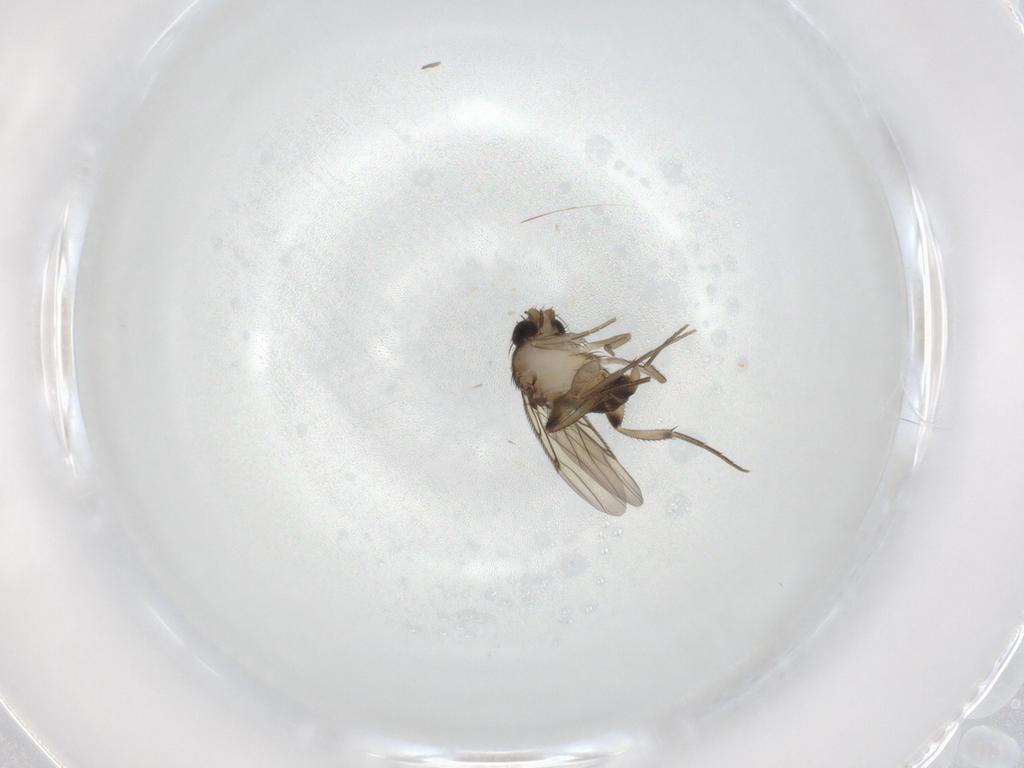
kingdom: Animalia
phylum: Arthropoda
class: Insecta
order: Diptera
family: Phoridae
